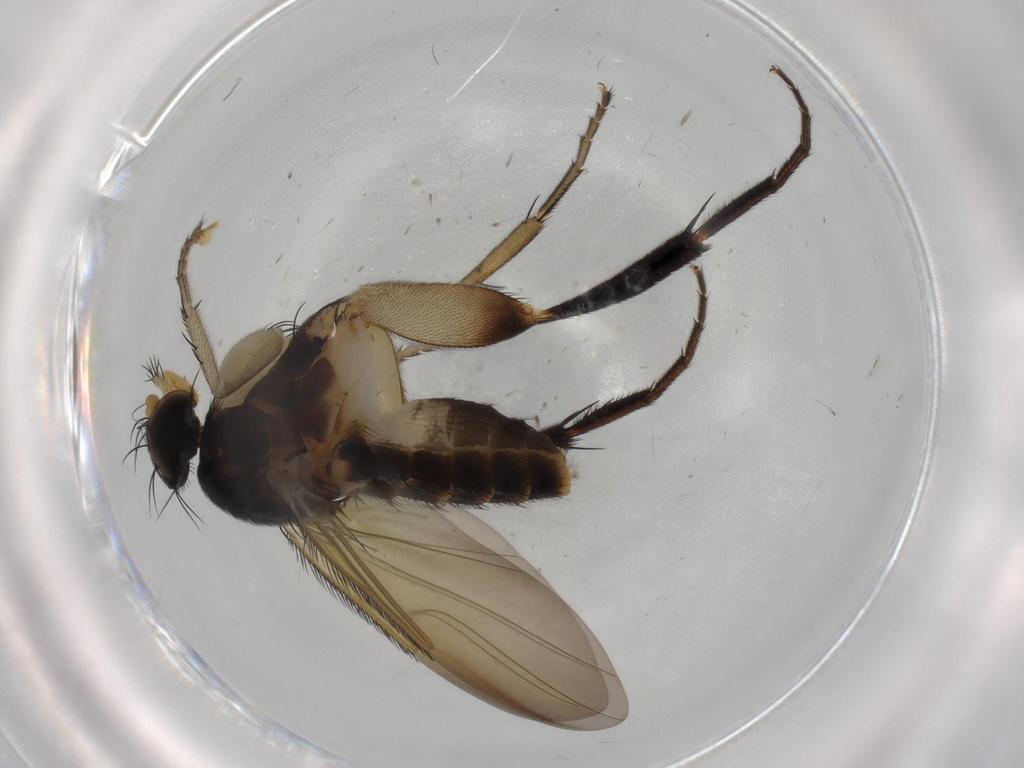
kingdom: Animalia
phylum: Arthropoda
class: Insecta
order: Diptera
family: Phoridae
